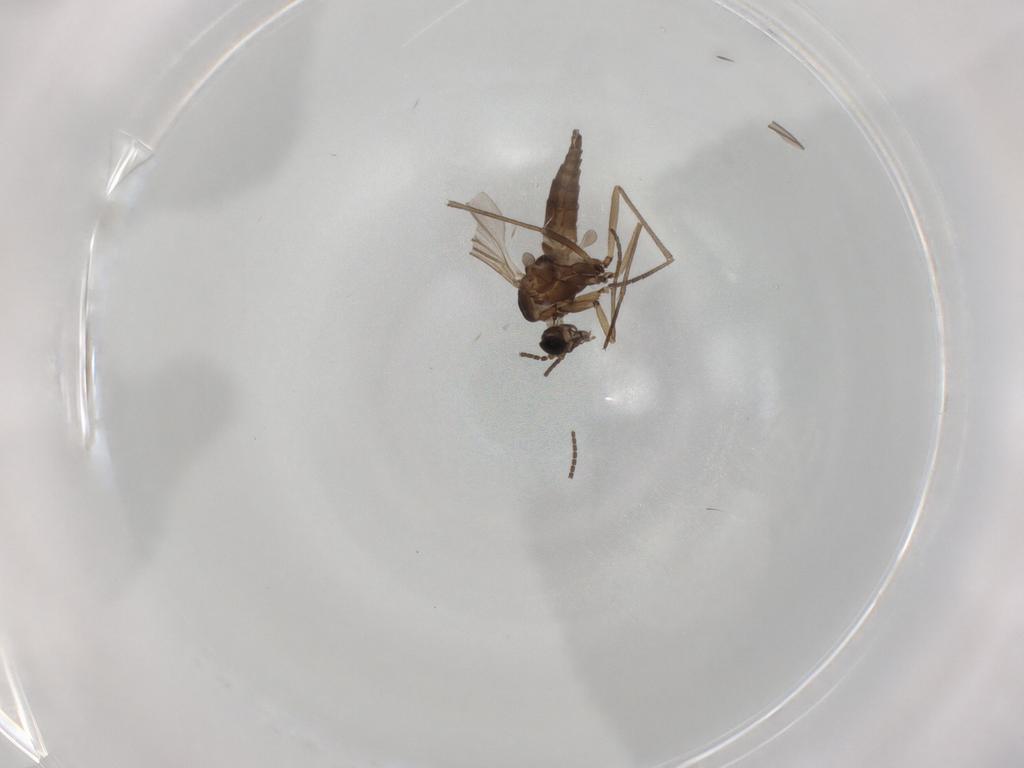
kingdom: Animalia
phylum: Arthropoda
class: Insecta
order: Diptera
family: Sciaridae
